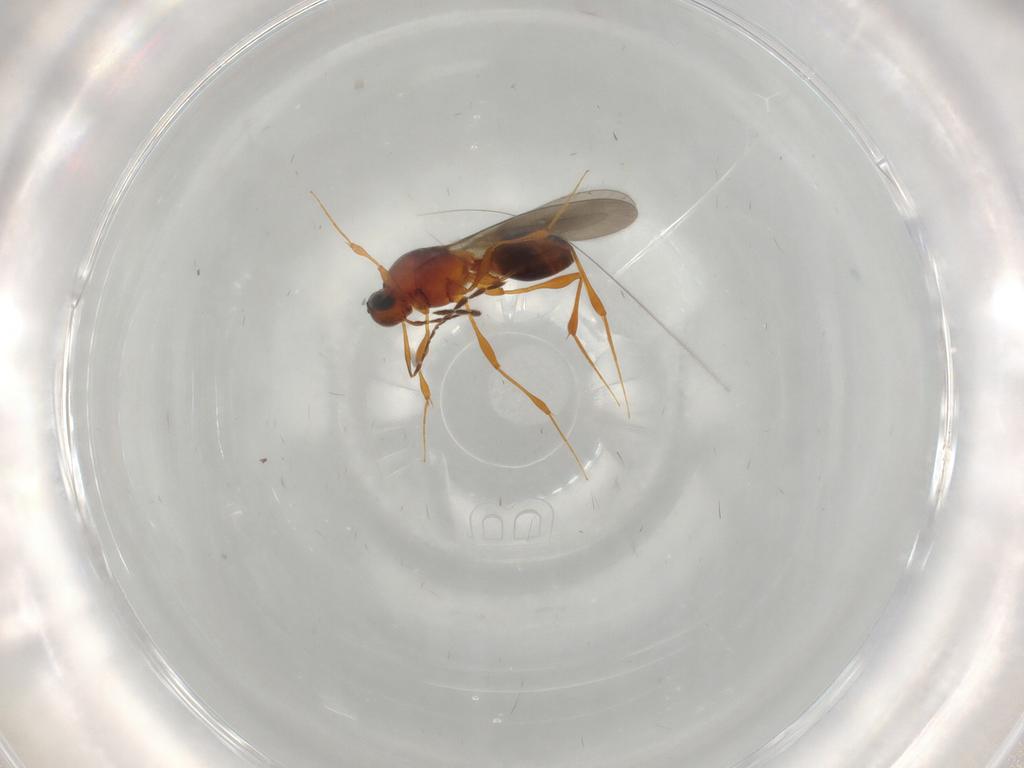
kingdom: Animalia
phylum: Arthropoda
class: Insecta
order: Hymenoptera
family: Platygastridae
